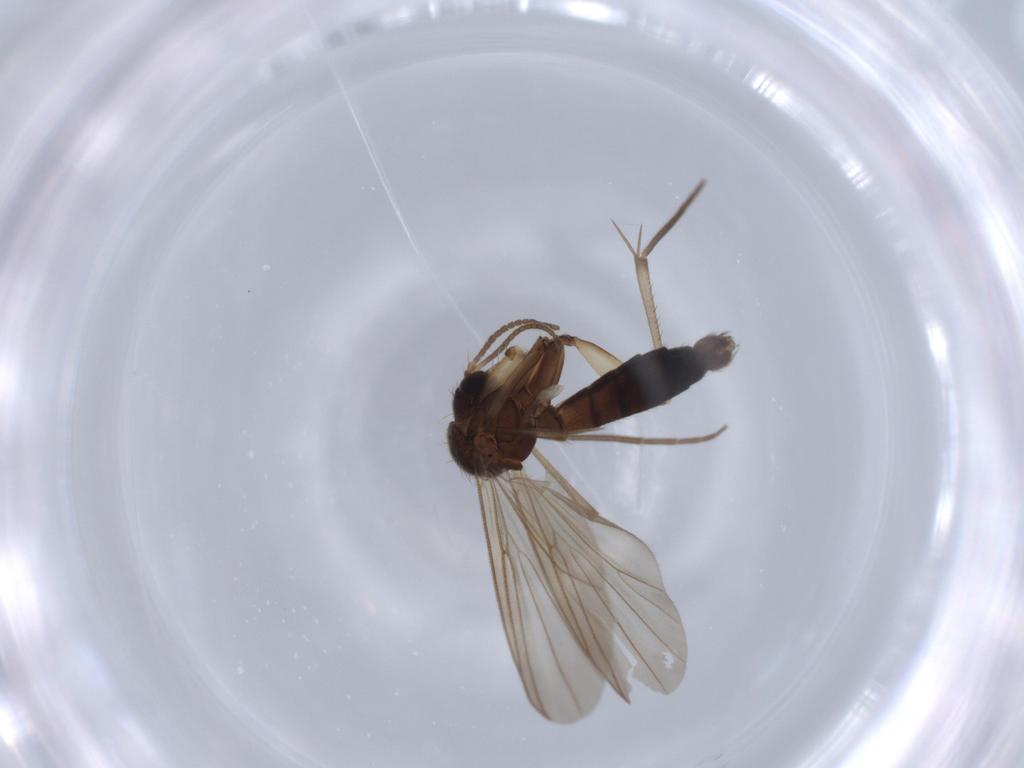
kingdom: Animalia
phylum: Arthropoda
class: Insecta
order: Diptera
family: Mycetophilidae
